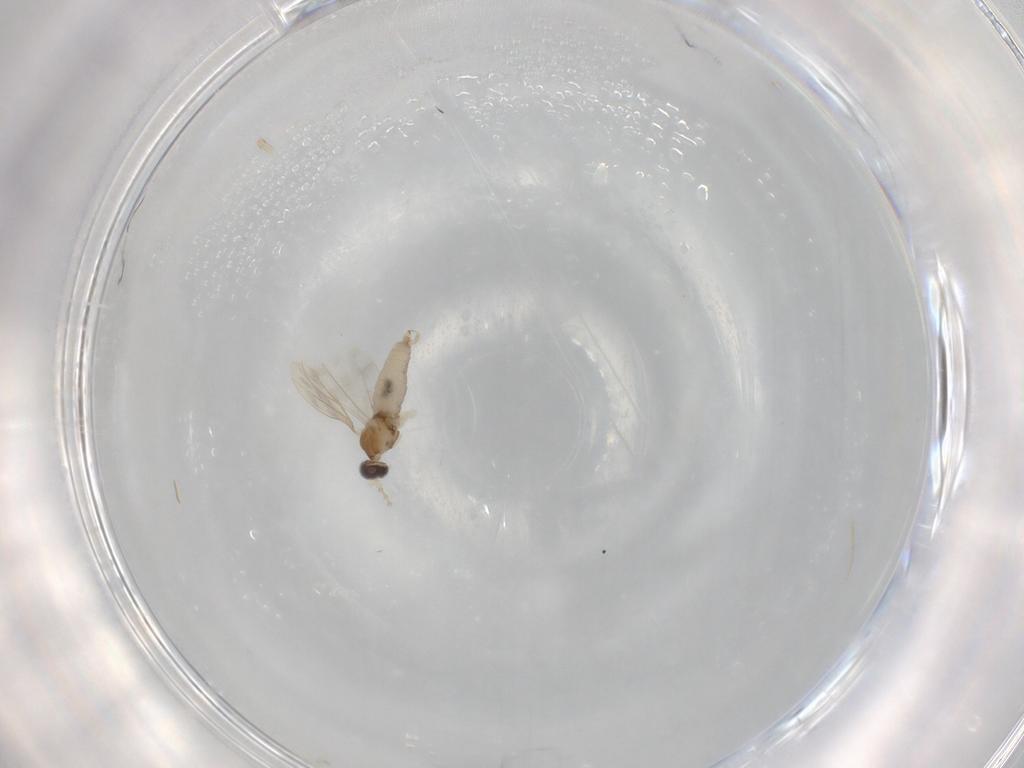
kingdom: Animalia
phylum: Arthropoda
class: Insecta
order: Diptera
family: Cecidomyiidae
